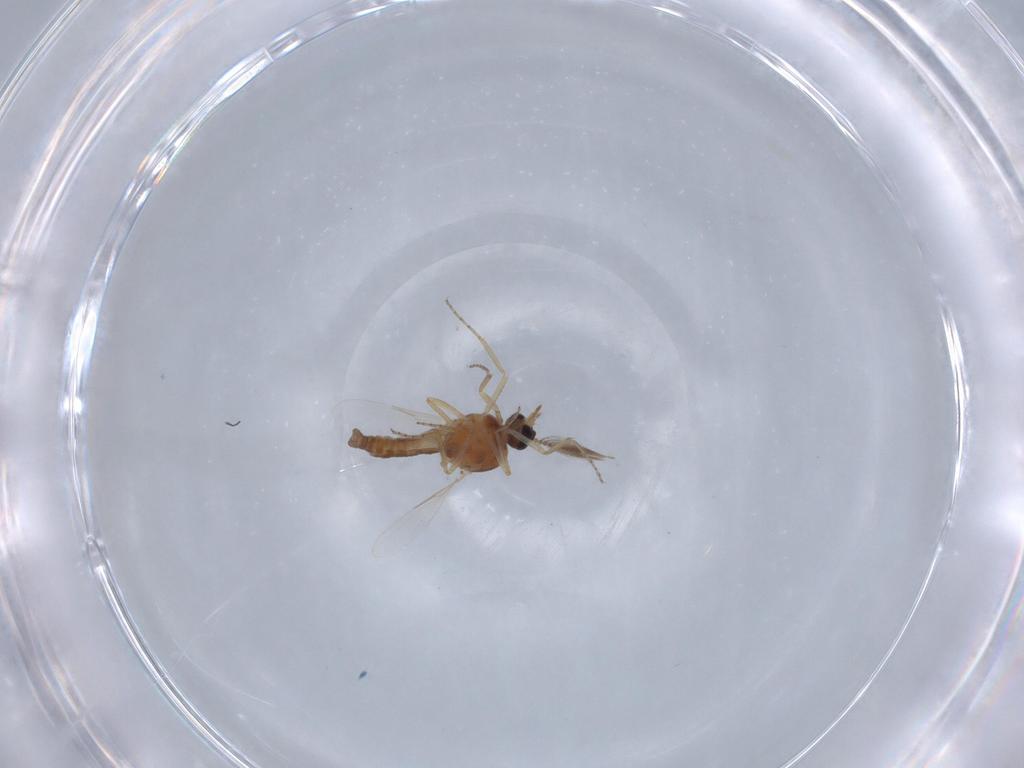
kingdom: Animalia
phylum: Arthropoda
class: Insecta
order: Diptera
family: Ceratopogonidae
